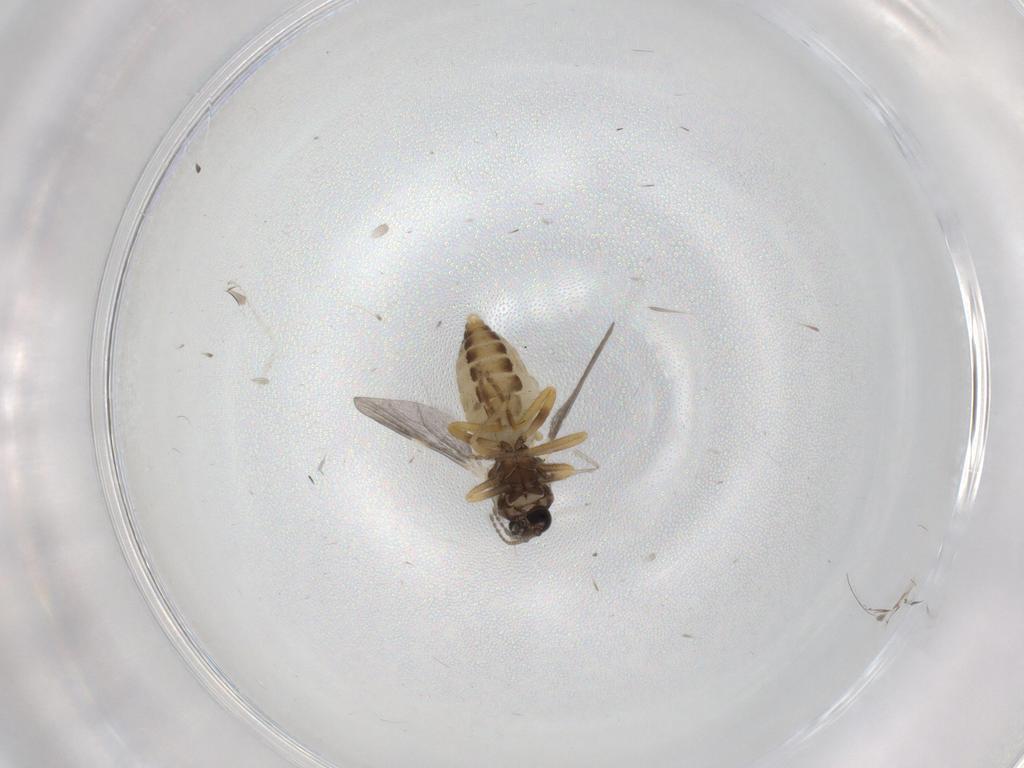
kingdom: Animalia
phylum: Arthropoda
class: Insecta
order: Diptera
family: Ceratopogonidae
